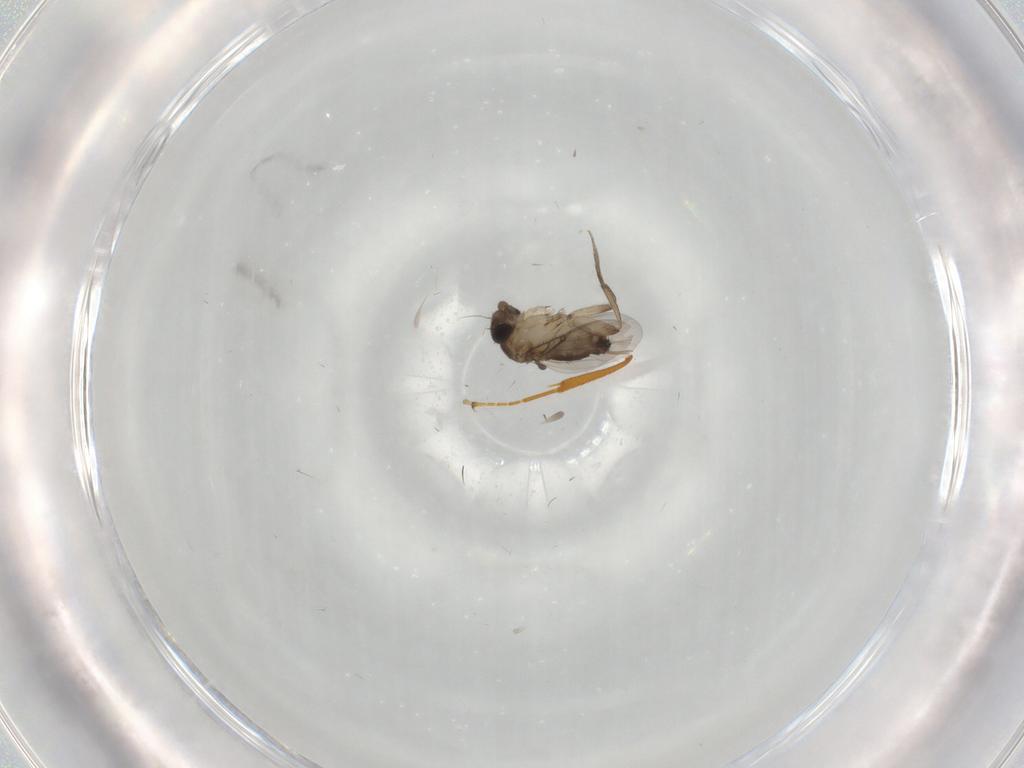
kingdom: Animalia
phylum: Arthropoda
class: Insecta
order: Diptera
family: Phoridae
